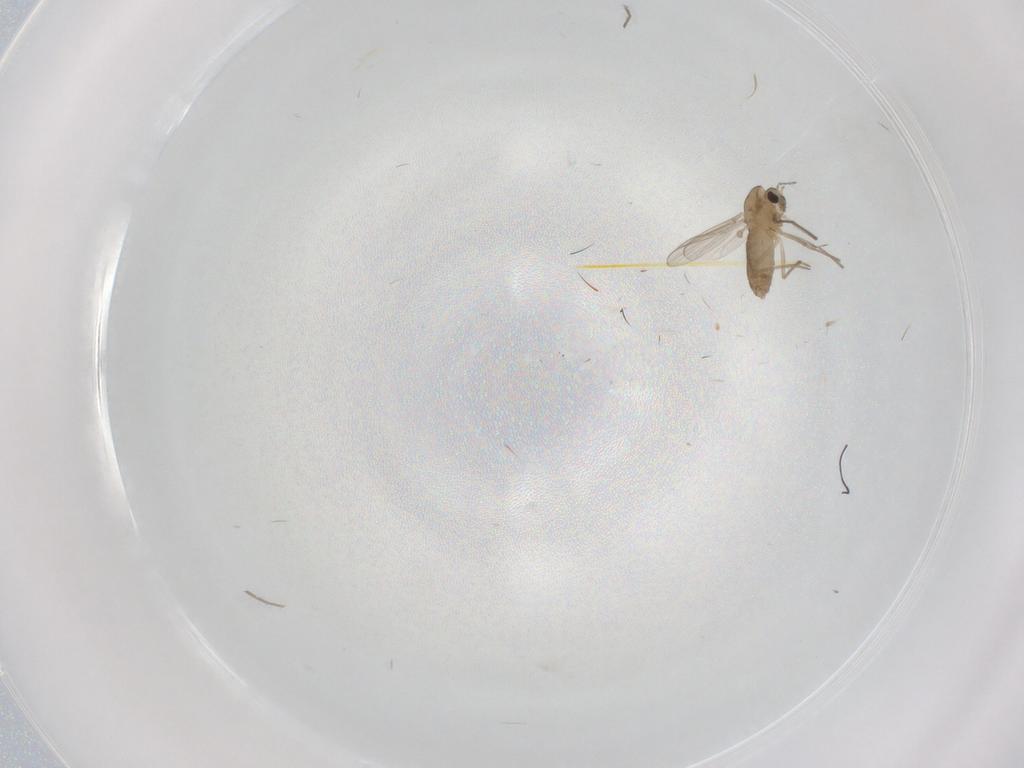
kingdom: Animalia
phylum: Arthropoda
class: Insecta
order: Diptera
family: Chironomidae
